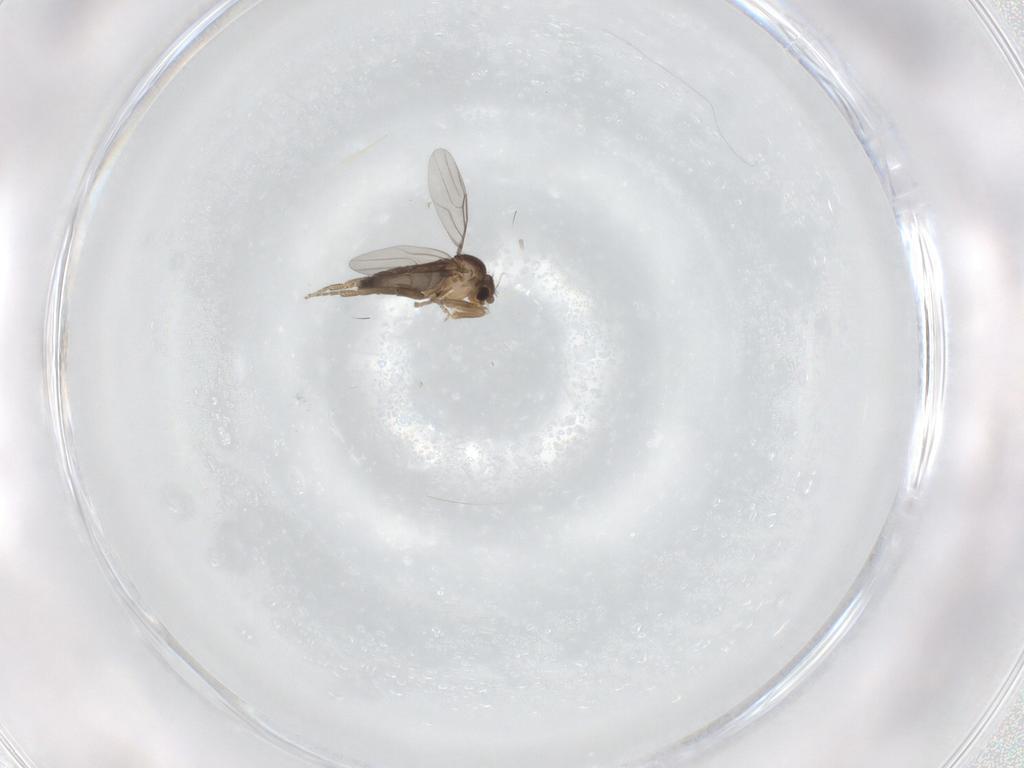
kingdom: Animalia
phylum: Arthropoda
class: Insecta
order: Diptera
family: Phoridae
